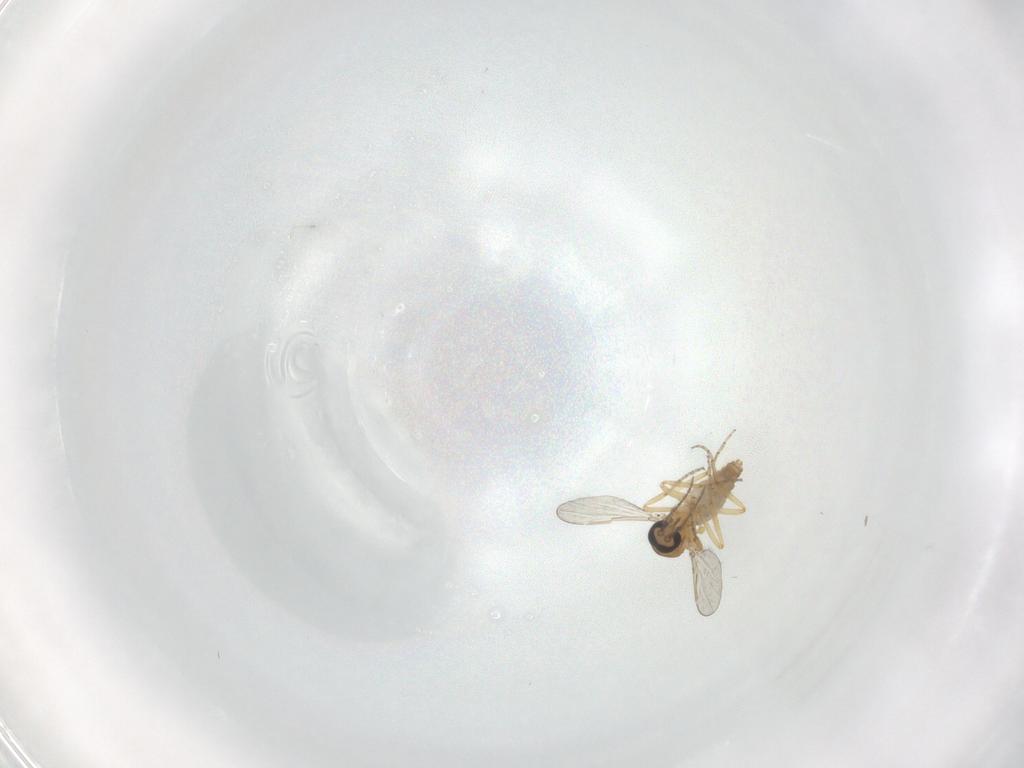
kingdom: Animalia
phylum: Arthropoda
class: Insecta
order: Diptera
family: Ceratopogonidae
